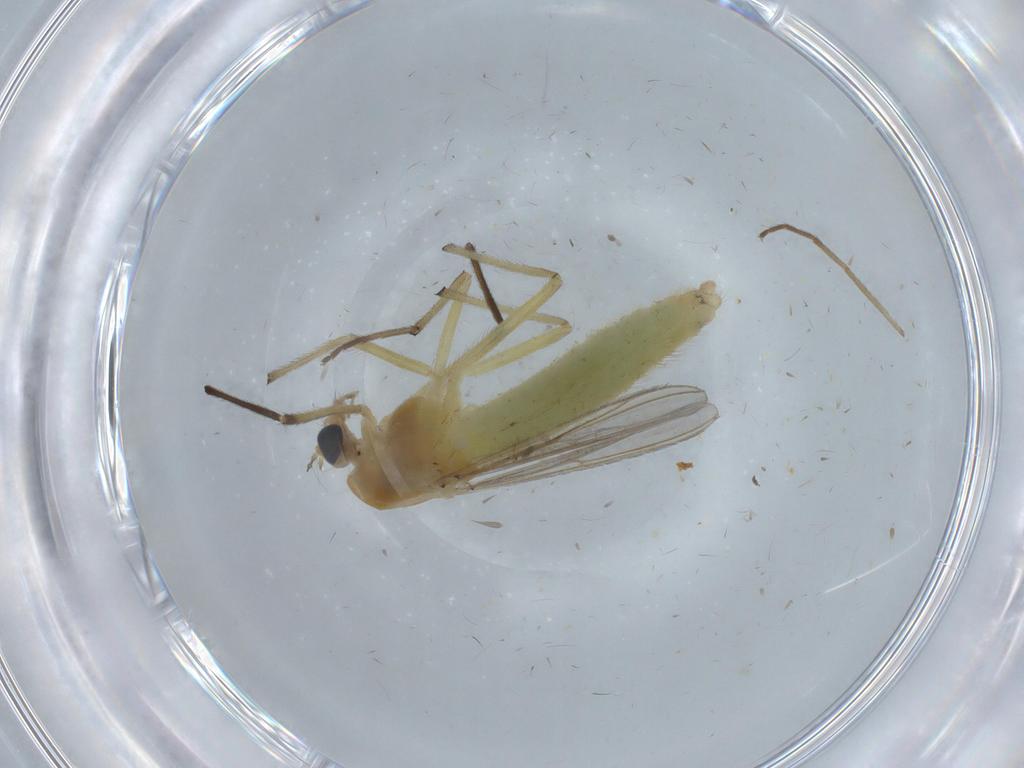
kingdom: Animalia
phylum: Arthropoda
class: Insecta
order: Diptera
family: Chironomidae
